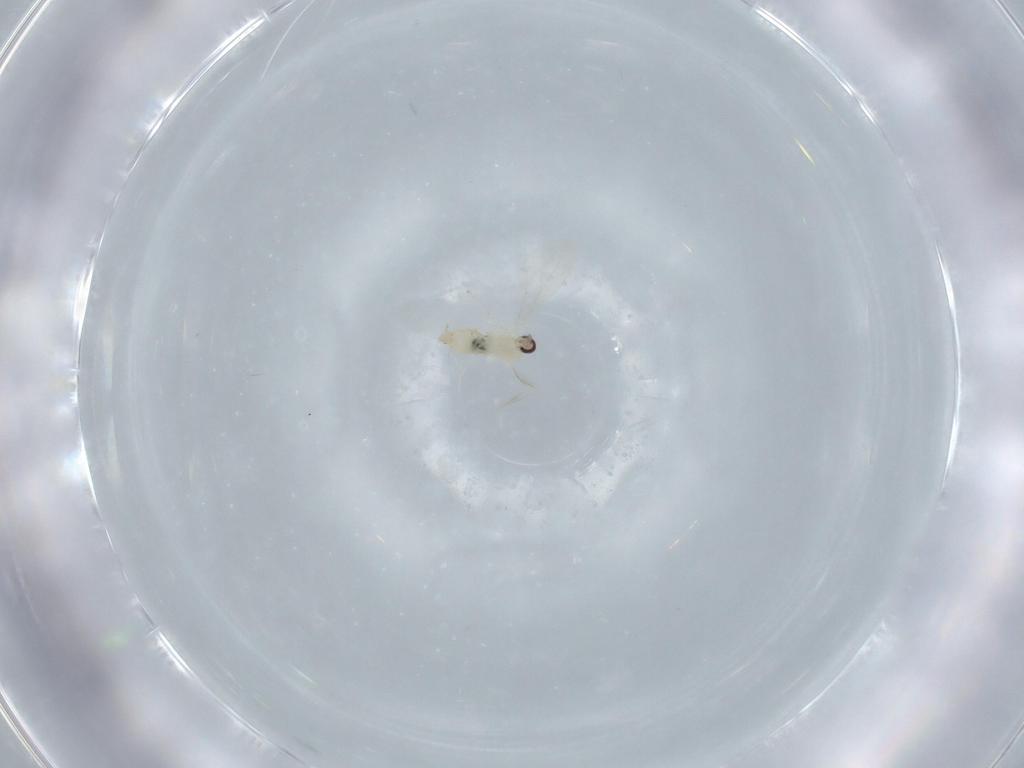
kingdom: Animalia
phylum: Arthropoda
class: Insecta
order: Diptera
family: Cecidomyiidae
